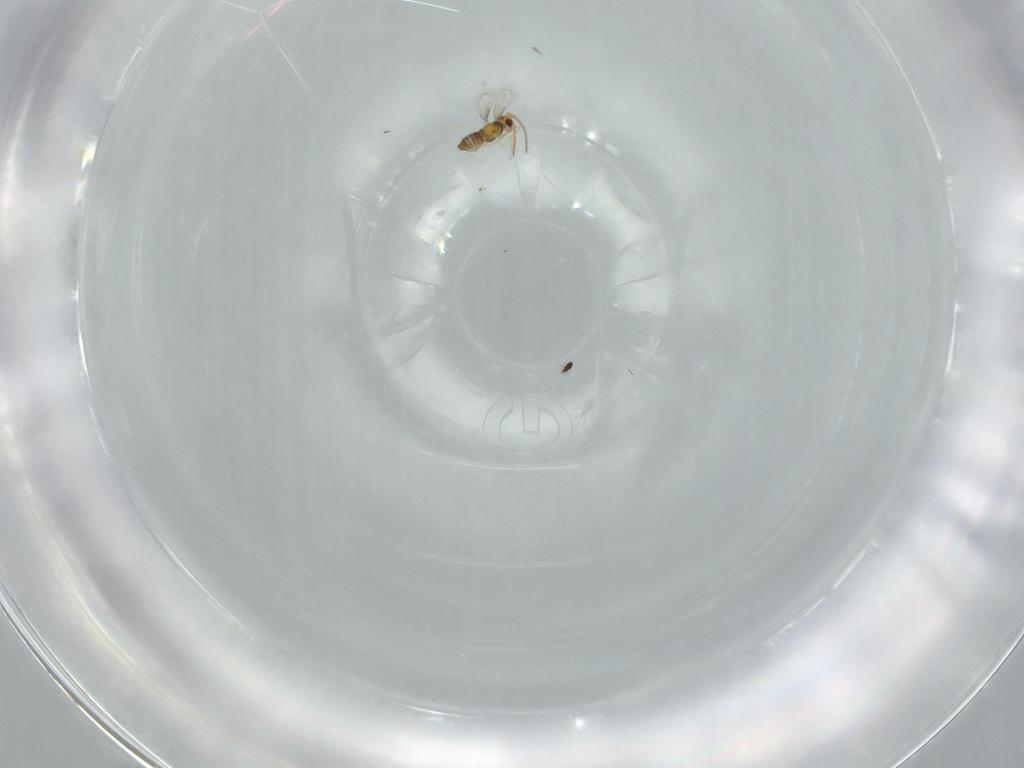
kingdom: Animalia
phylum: Arthropoda
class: Insecta
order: Hymenoptera
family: Aphelinidae
